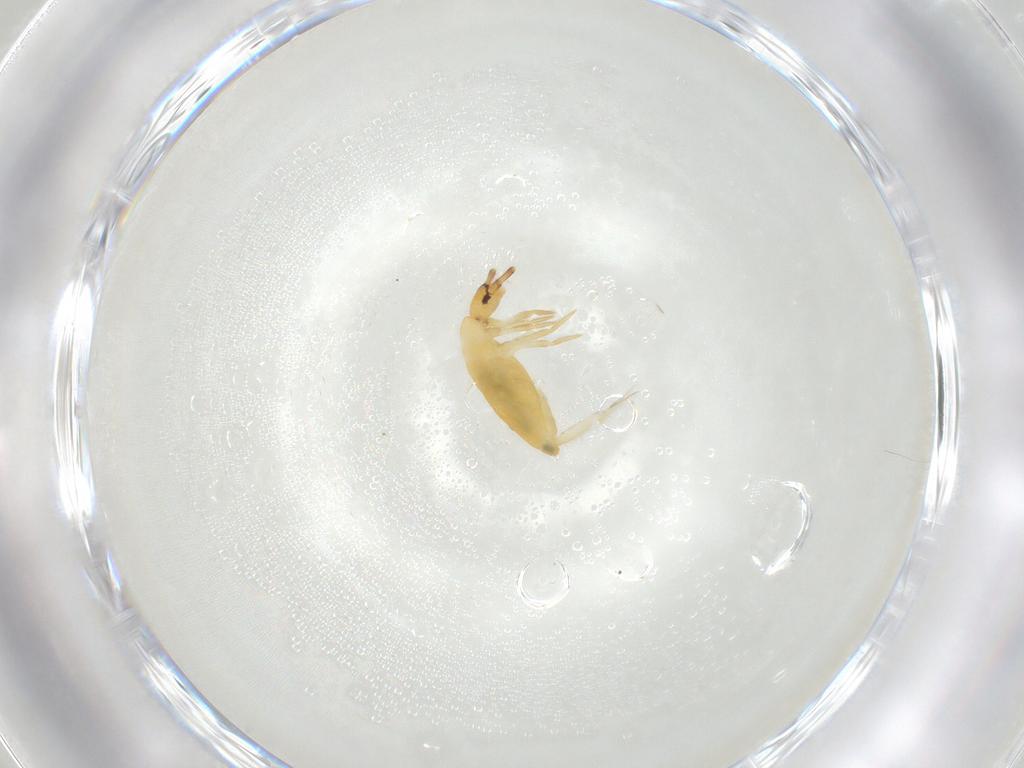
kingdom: Animalia
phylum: Arthropoda
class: Collembola
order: Entomobryomorpha
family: Entomobryidae
